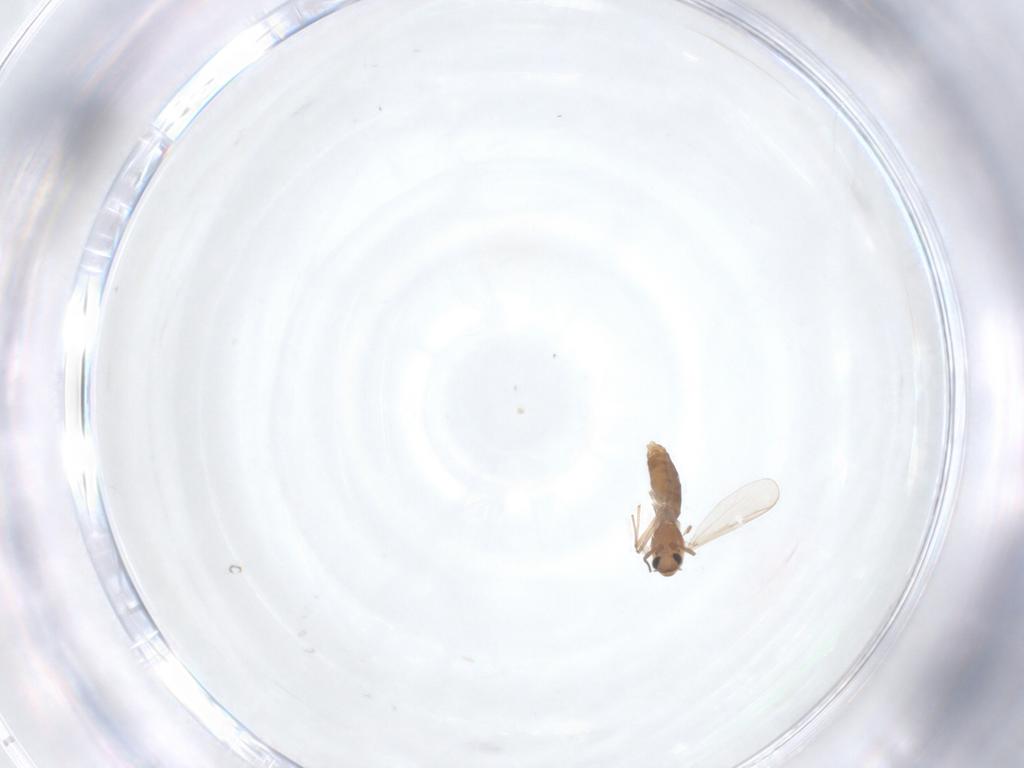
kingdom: Animalia
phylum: Arthropoda
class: Insecta
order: Diptera
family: Chironomidae
